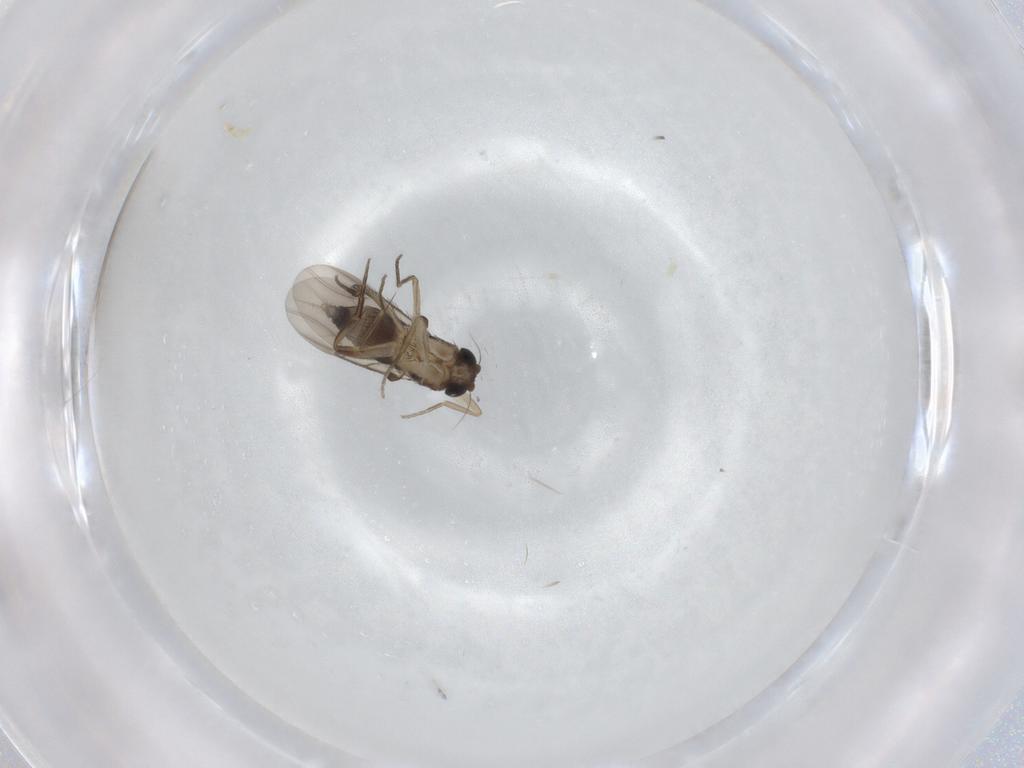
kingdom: Animalia
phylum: Arthropoda
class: Insecta
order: Diptera
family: Phoridae
